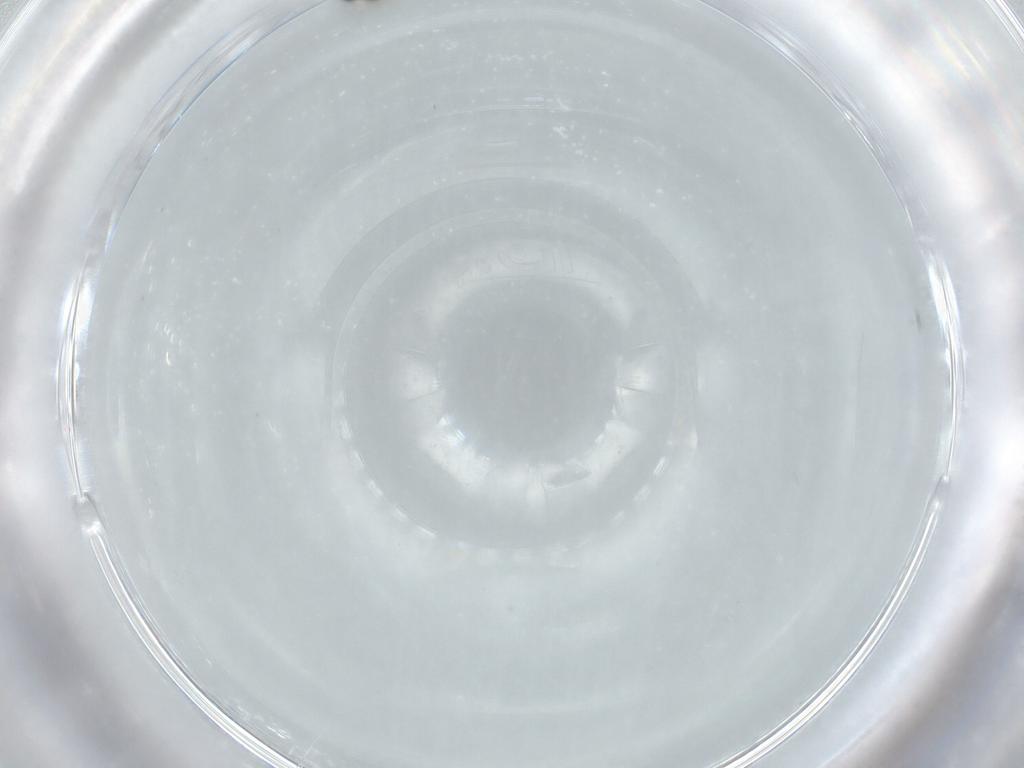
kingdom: Animalia
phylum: Arthropoda
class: Insecta
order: Diptera
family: Cecidomyiidae
